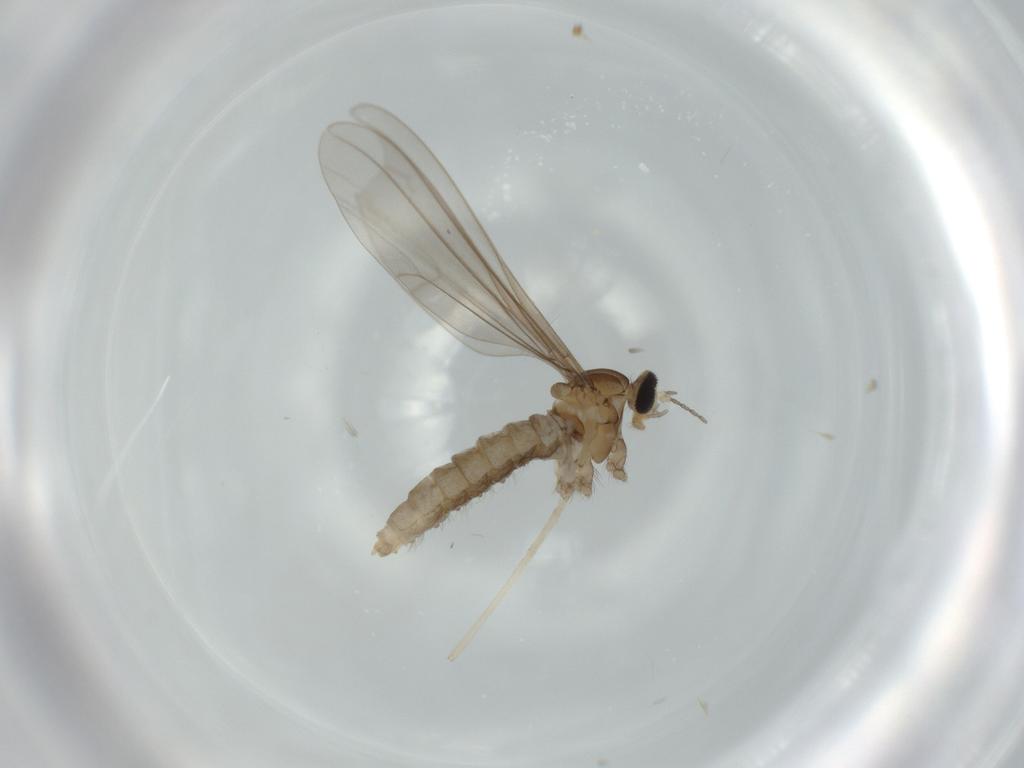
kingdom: Animalia
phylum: Arthropoda
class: Insecta
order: Diptera
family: Cecidomyiidae
